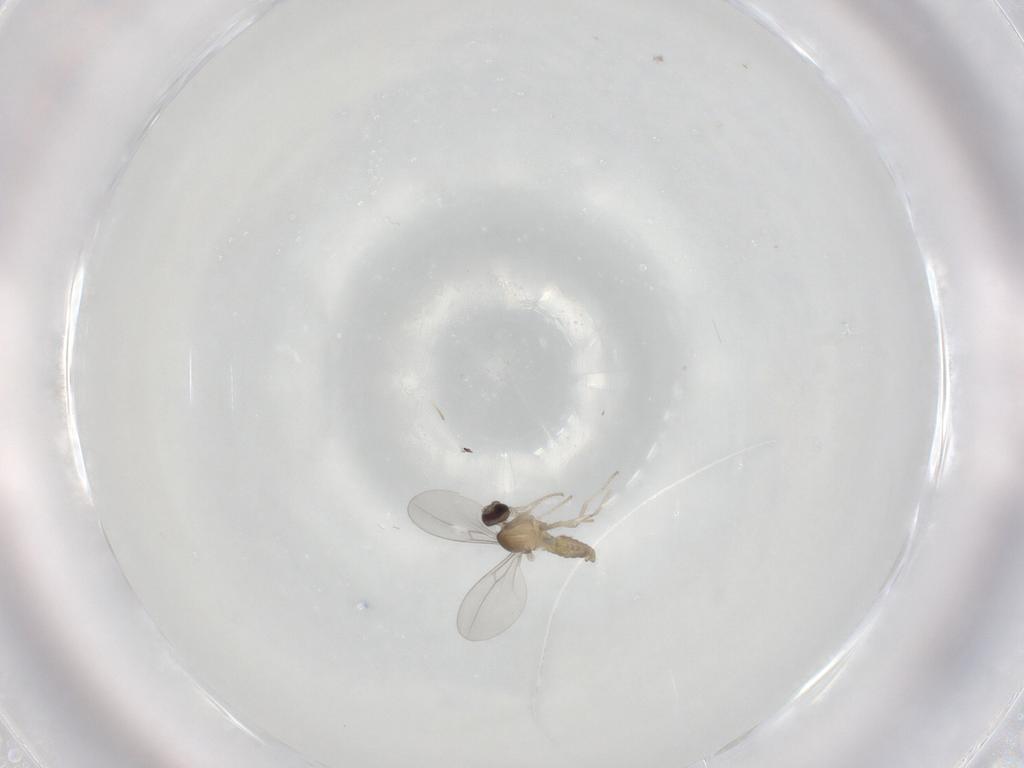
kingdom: Animalia
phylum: Arthropoda
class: Insecta
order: Diptera
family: Cecidomyiidae
